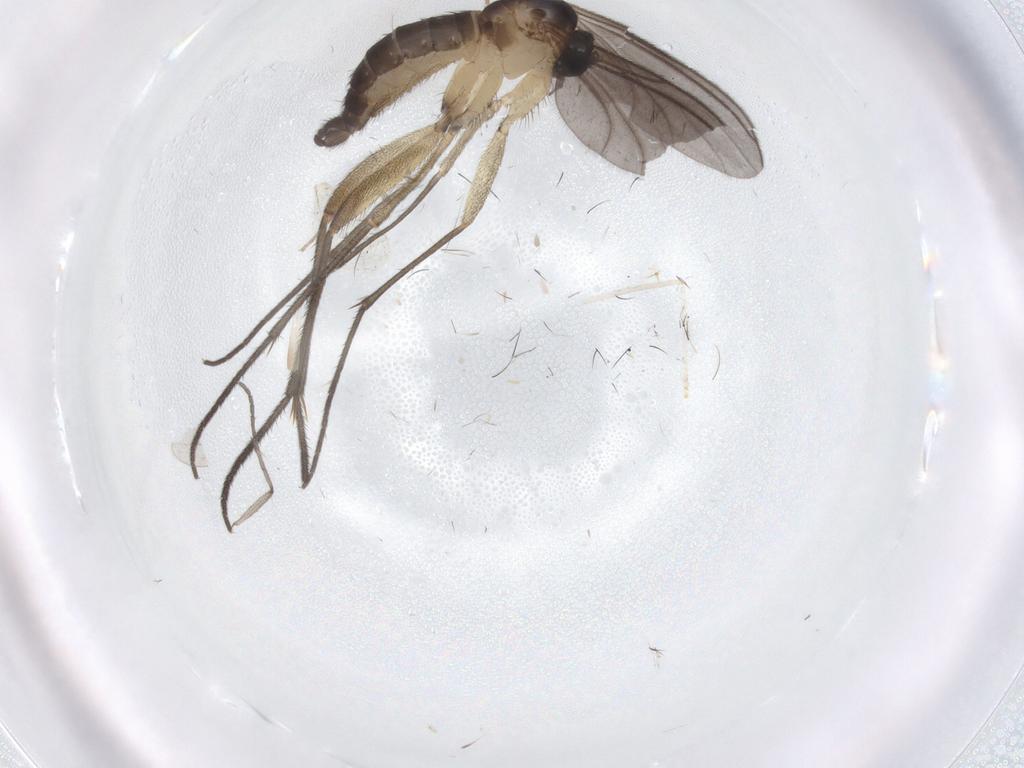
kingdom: Animalia
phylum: Arthropoda
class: Insecta
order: Diptera
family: Sciaridae
